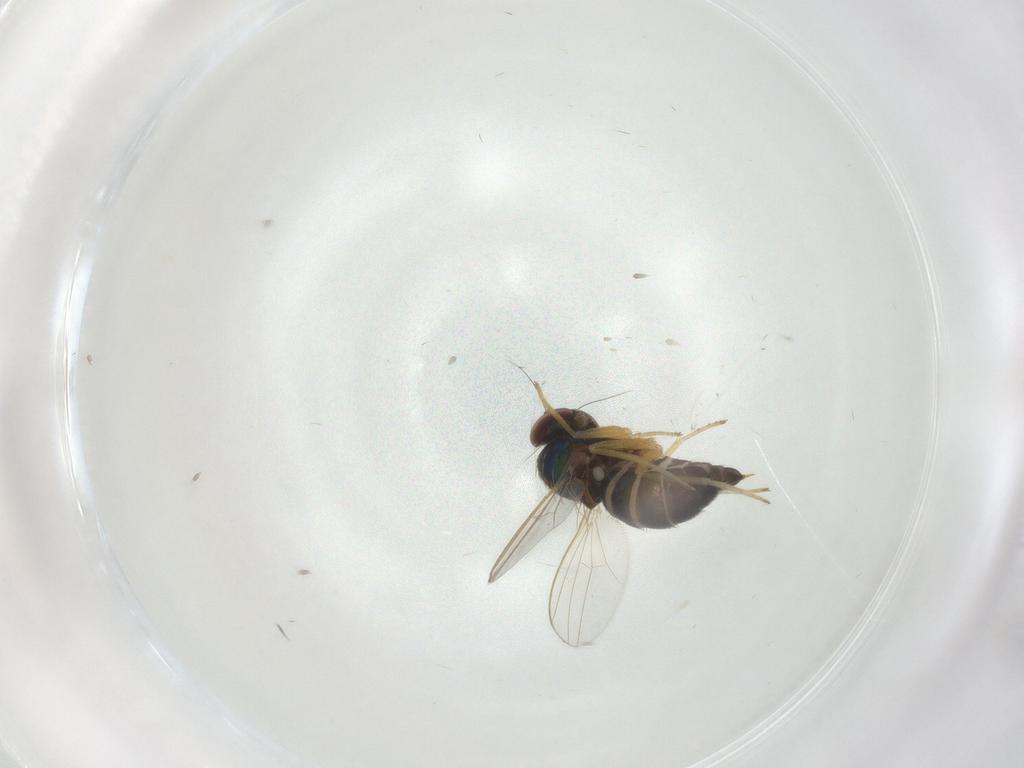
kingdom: Animalia
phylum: Arthropoda
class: Insecta
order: Diptera
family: Dolichopodidae
